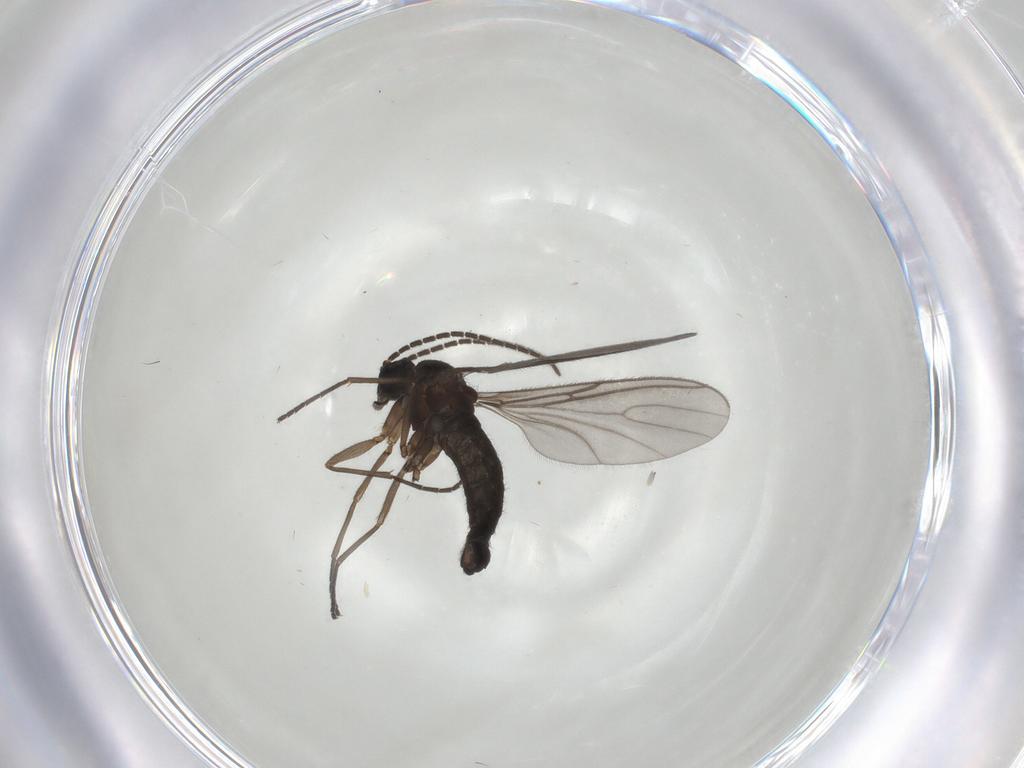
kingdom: Animalia
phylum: Arthropoda
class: Insecta
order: Diptera
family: Sciaridae
